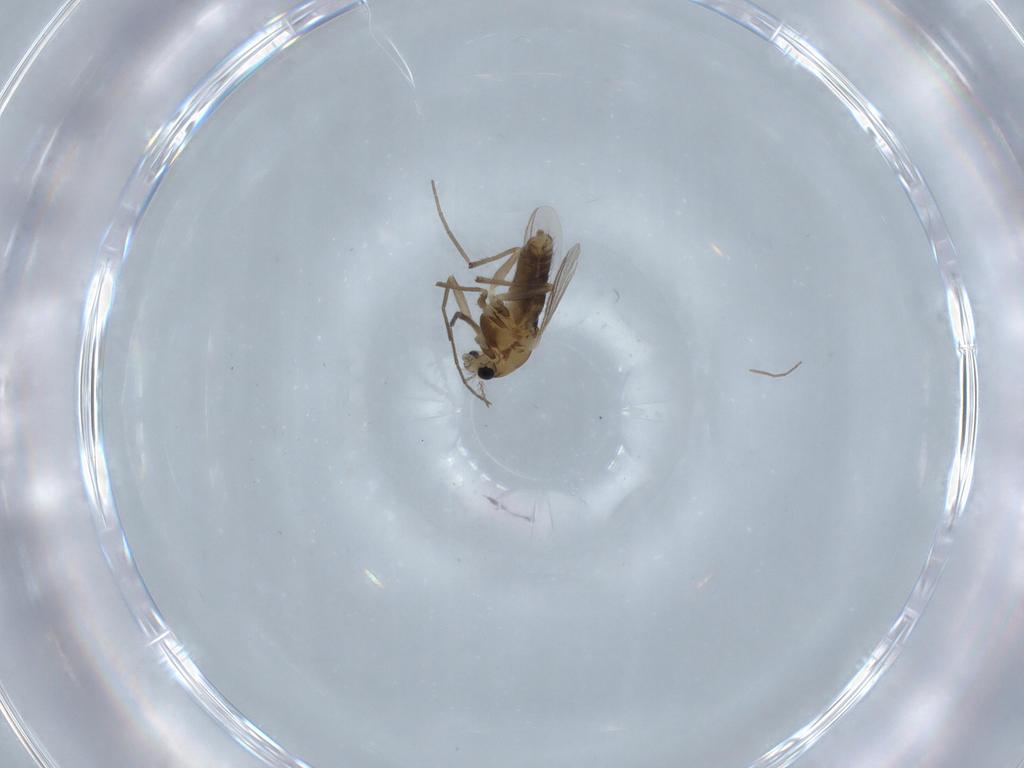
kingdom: Animalia
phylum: Arthropoda
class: Insecta
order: Diptera
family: Chironomidae
